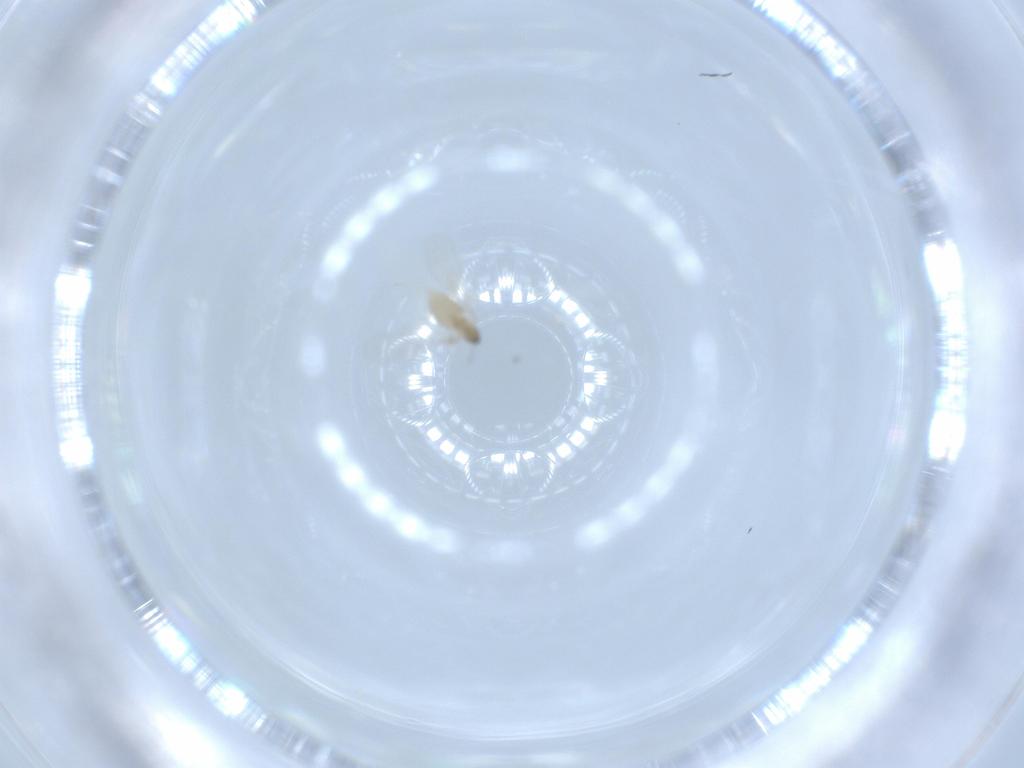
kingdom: Animalia
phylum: Arthropoda
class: Insecta
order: Diptera
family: Cecidomyiidae
